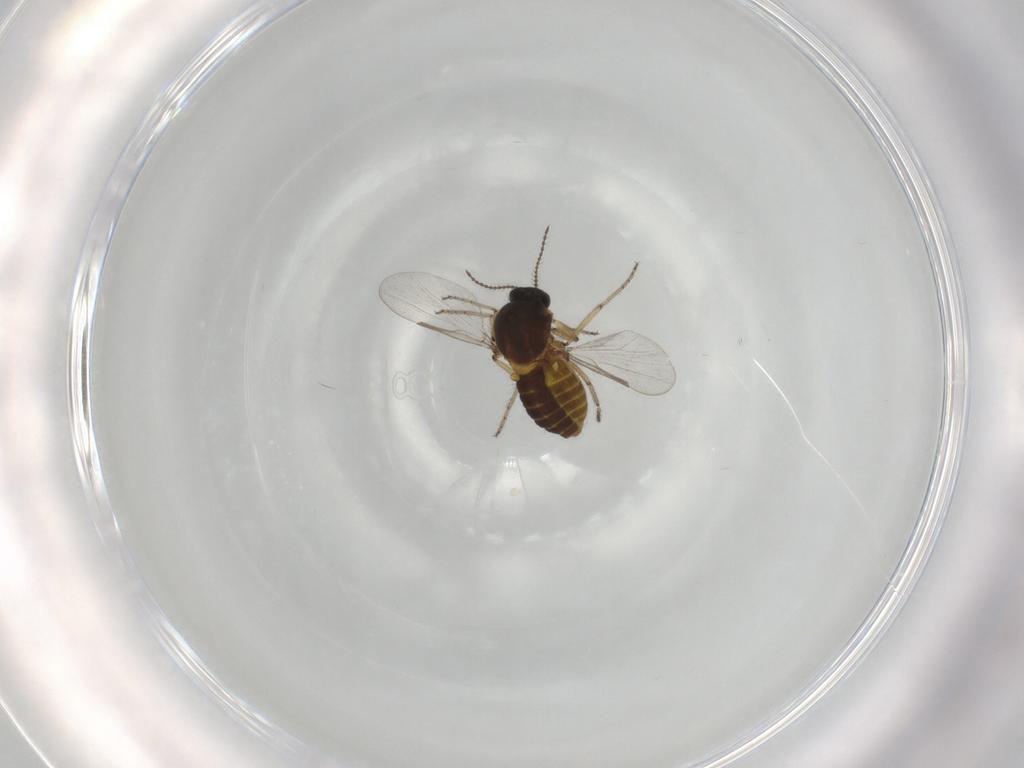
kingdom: Animalia
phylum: Arthropoda
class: Insecta
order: Diptera
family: Ceratopogonidae
